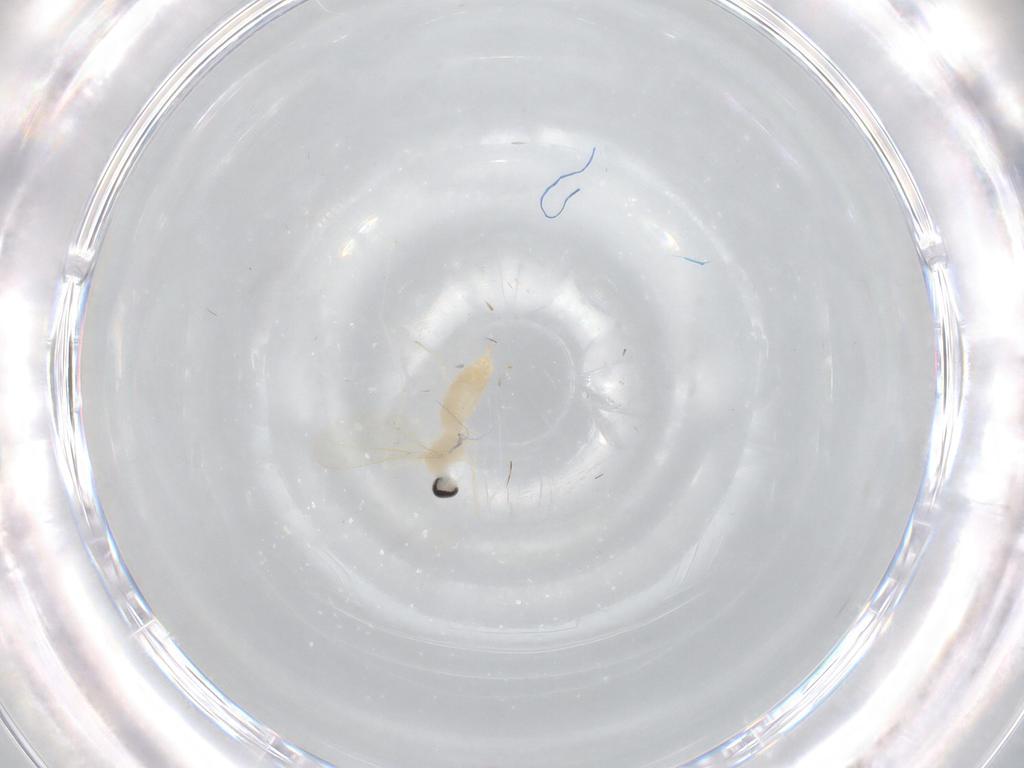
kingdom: Animalia
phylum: Arthropoda
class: Insecta
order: Diptera
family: Cecidomyiidae
